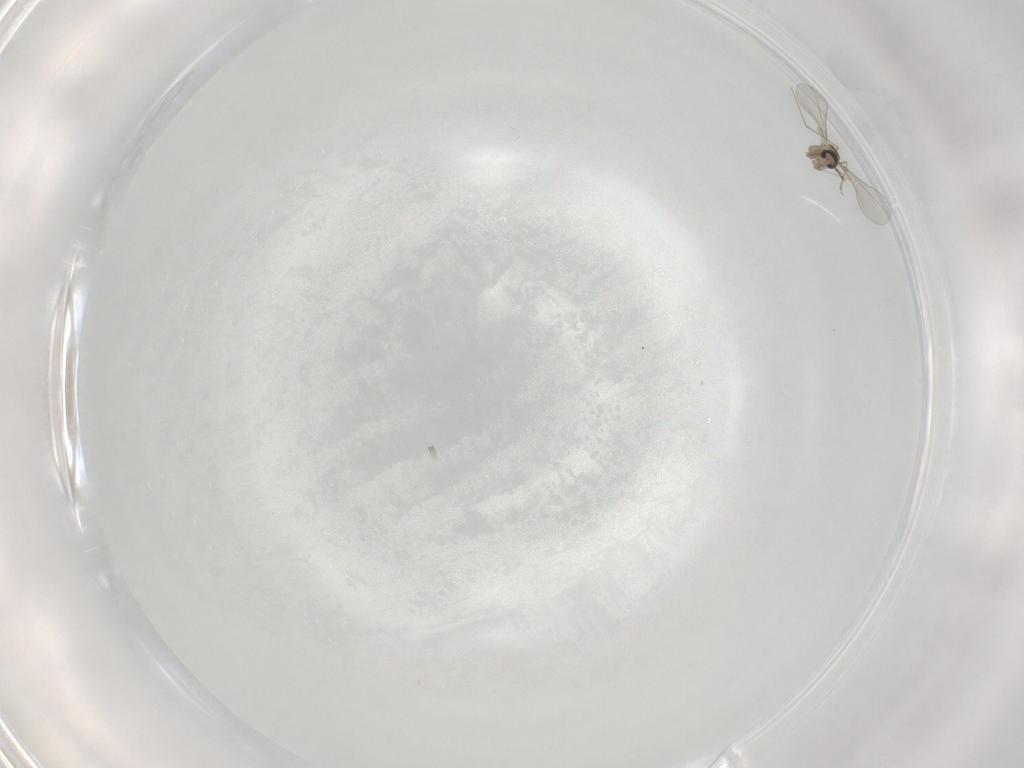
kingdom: Animalia
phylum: Arthropoda
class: Insecta
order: Diptera
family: Cecidomyiidae
